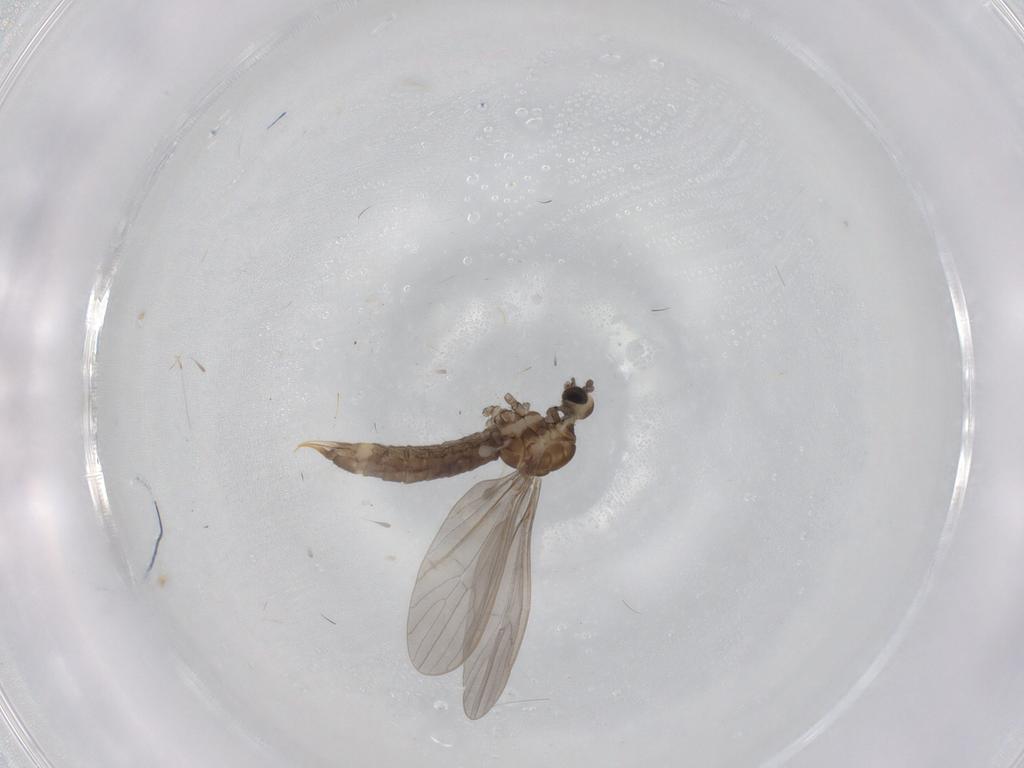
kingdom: Animalia
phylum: Arthropoda
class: Insecta
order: Diptera
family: Limoniidae
